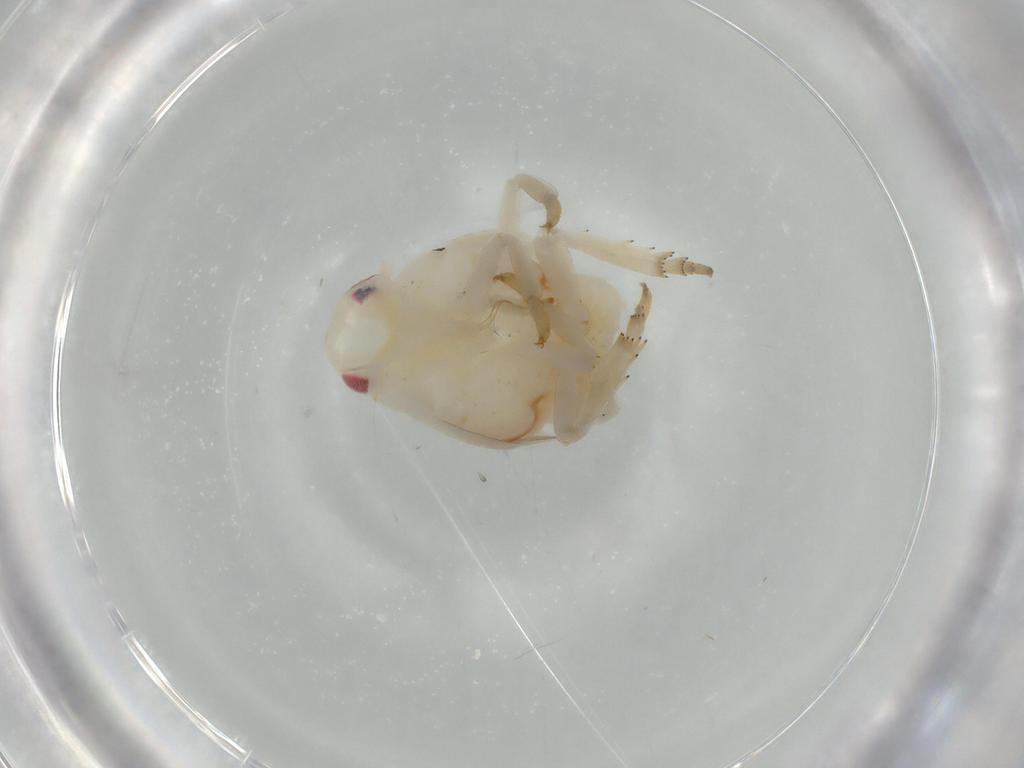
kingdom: Animalia
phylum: Arthropoda
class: Insecta
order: Hemiptera
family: Flatidae
